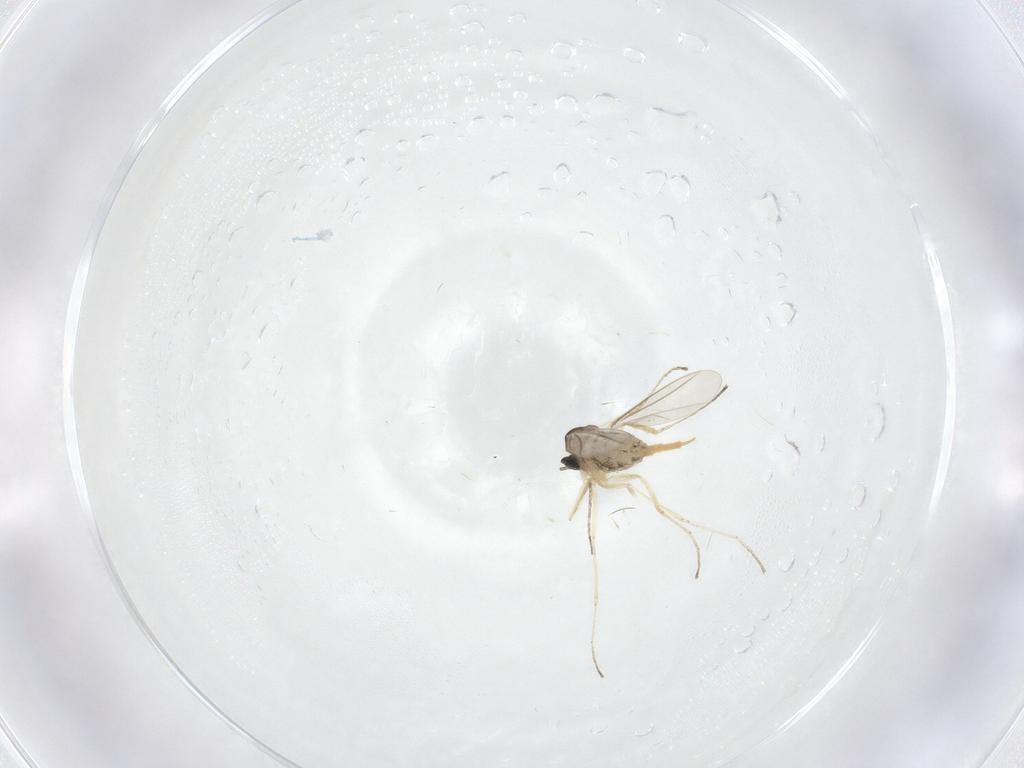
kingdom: Animalia
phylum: Arthropoda
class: Insecta
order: Diptera
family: Cecidomyiidae
